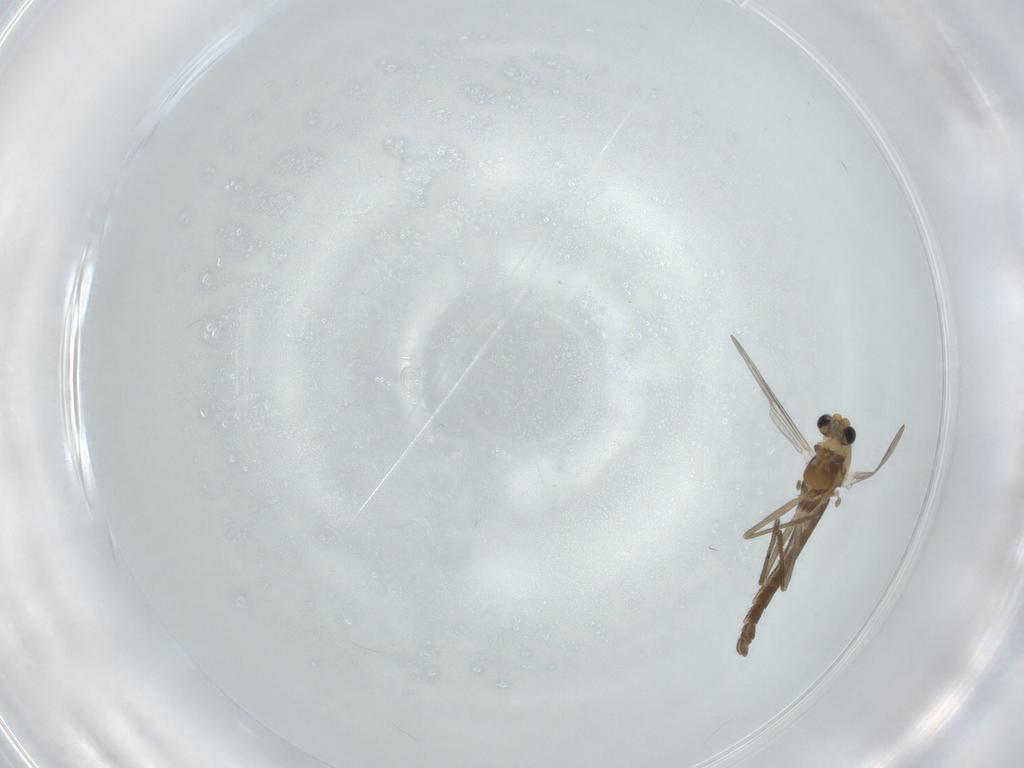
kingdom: Animalia
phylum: Arthropoda
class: Insecta
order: Diptera
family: Chironomidae
